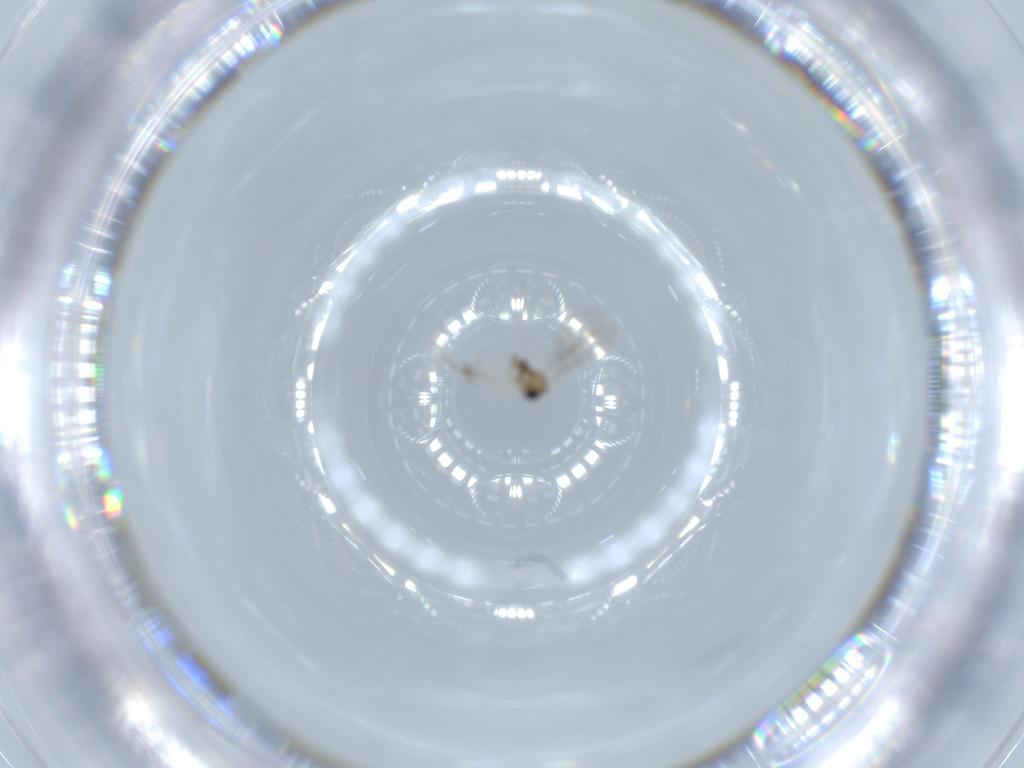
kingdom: Animalia
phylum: Arthropoda
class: Insecta
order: Diptera
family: Cecidomyiidae
